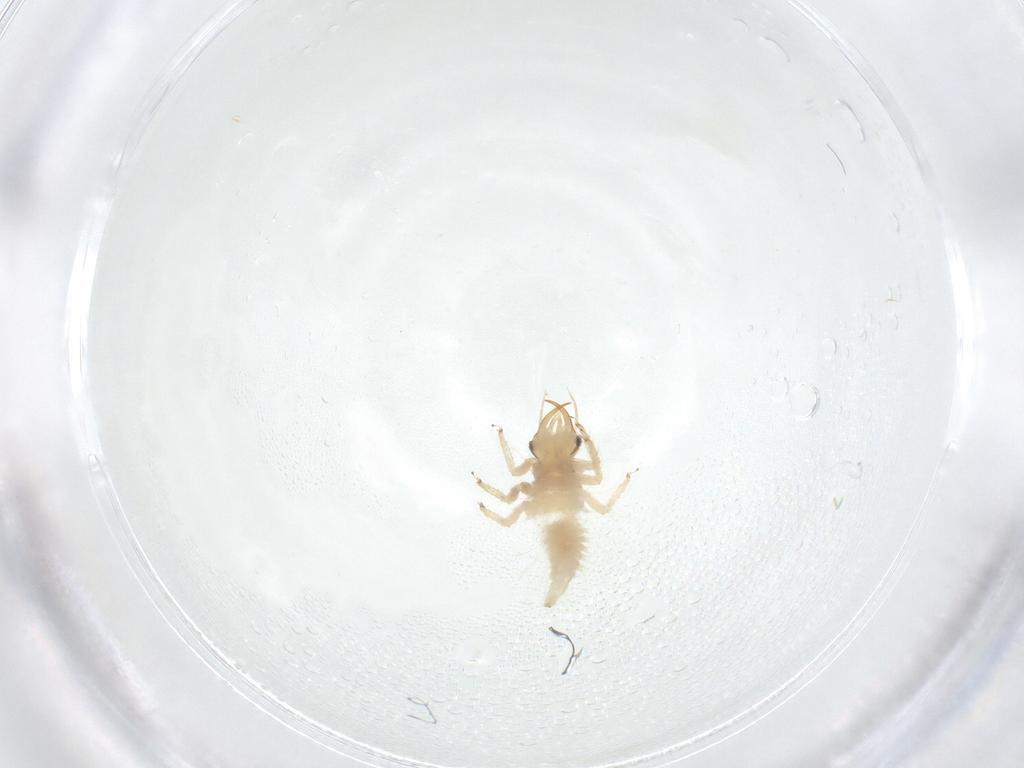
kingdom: Animalia
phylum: Arthropoda
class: Insecta
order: Neuroptera
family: Chrysopidae
